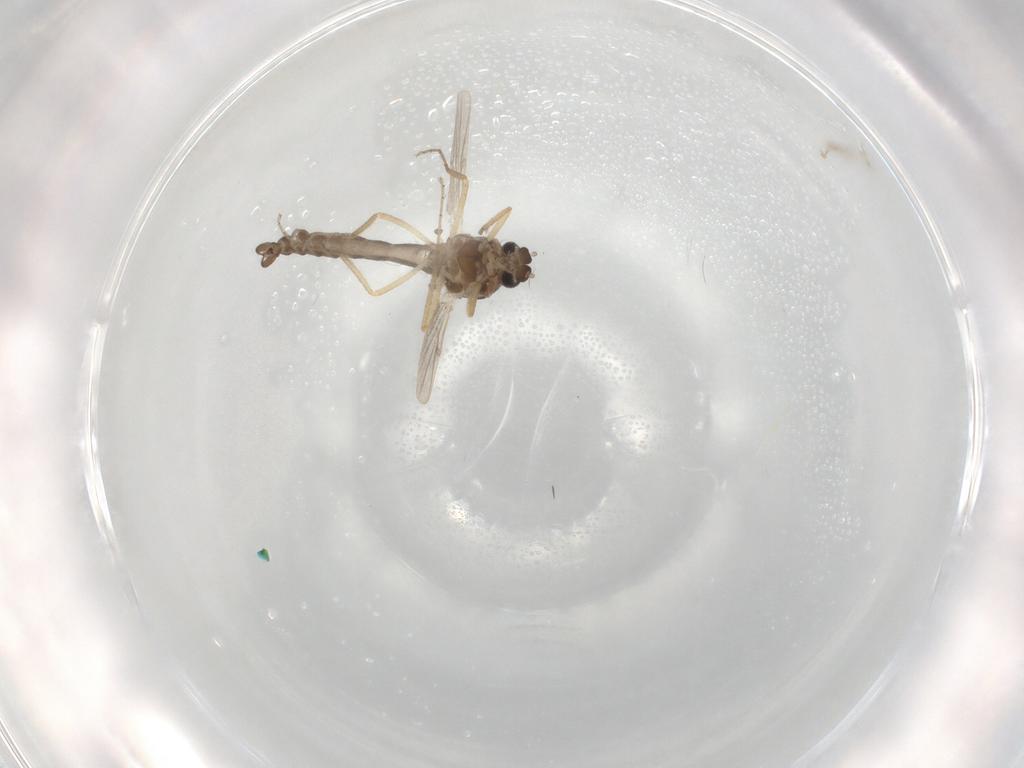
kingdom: Animalia
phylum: Arthropoda
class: Insecta
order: Diptera
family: Ceratopogonidae
